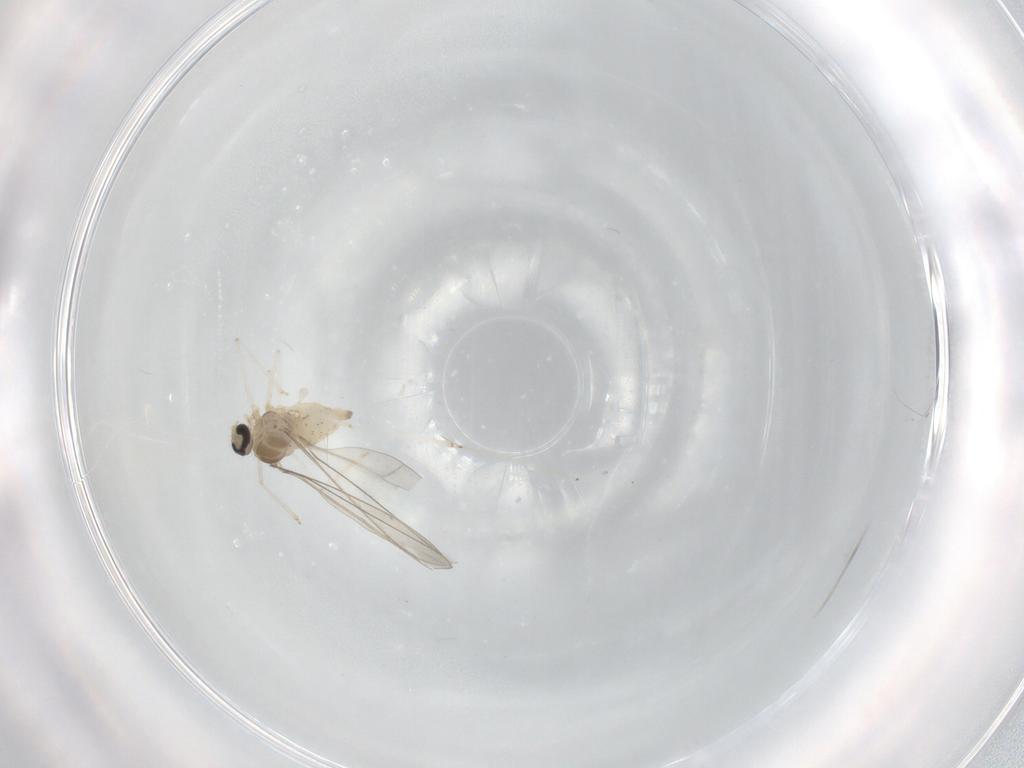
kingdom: Animalia
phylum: Arthropoda
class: Insecta
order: Diptera
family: Cecidomyiidae
